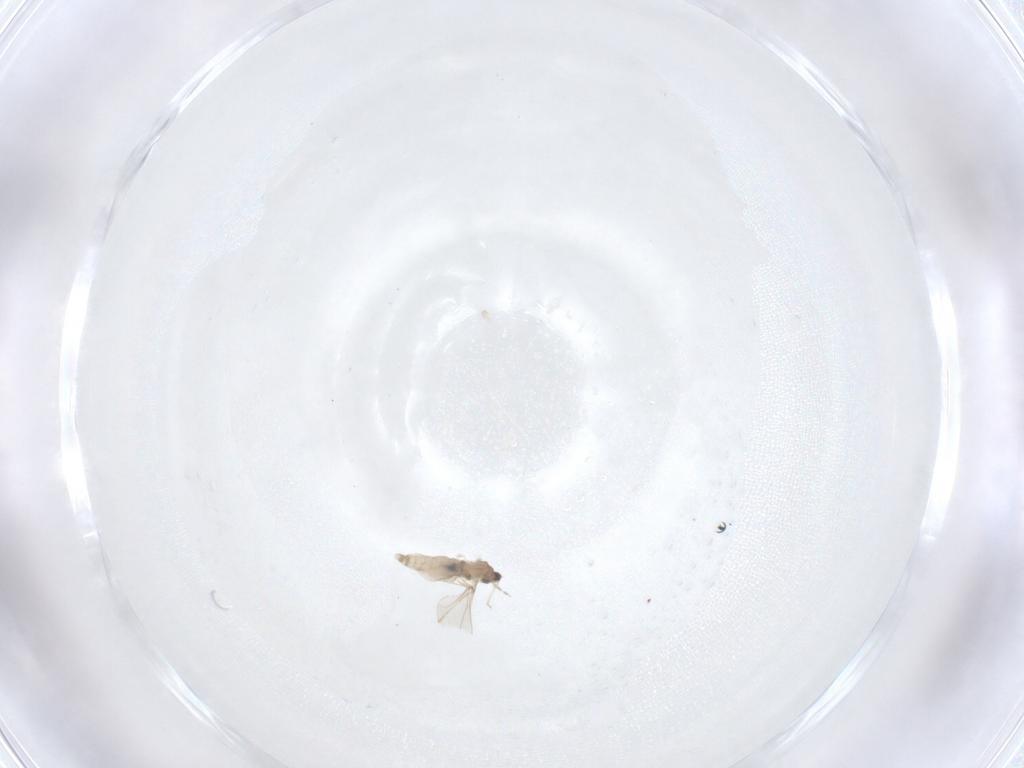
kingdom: Animalia
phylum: Arthropoda
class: Insecta
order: Diptera
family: Cecidomyiidae
